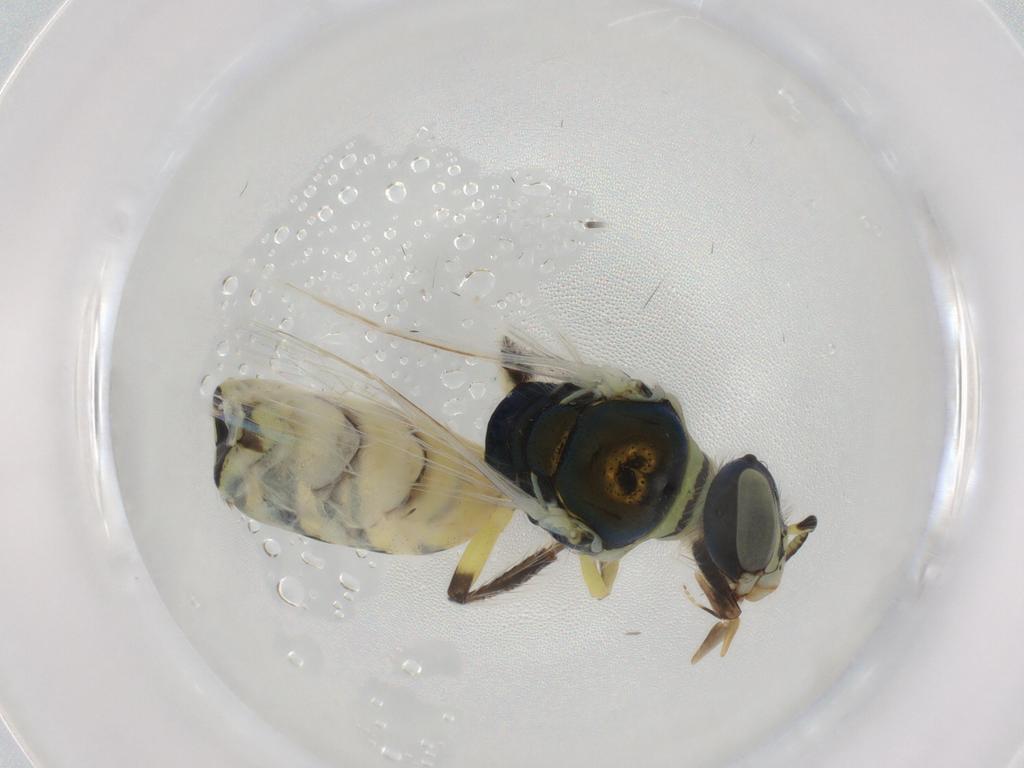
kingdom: Animalia
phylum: Arthropoda
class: Insecta
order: Hymenoptera
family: Andrenidae
